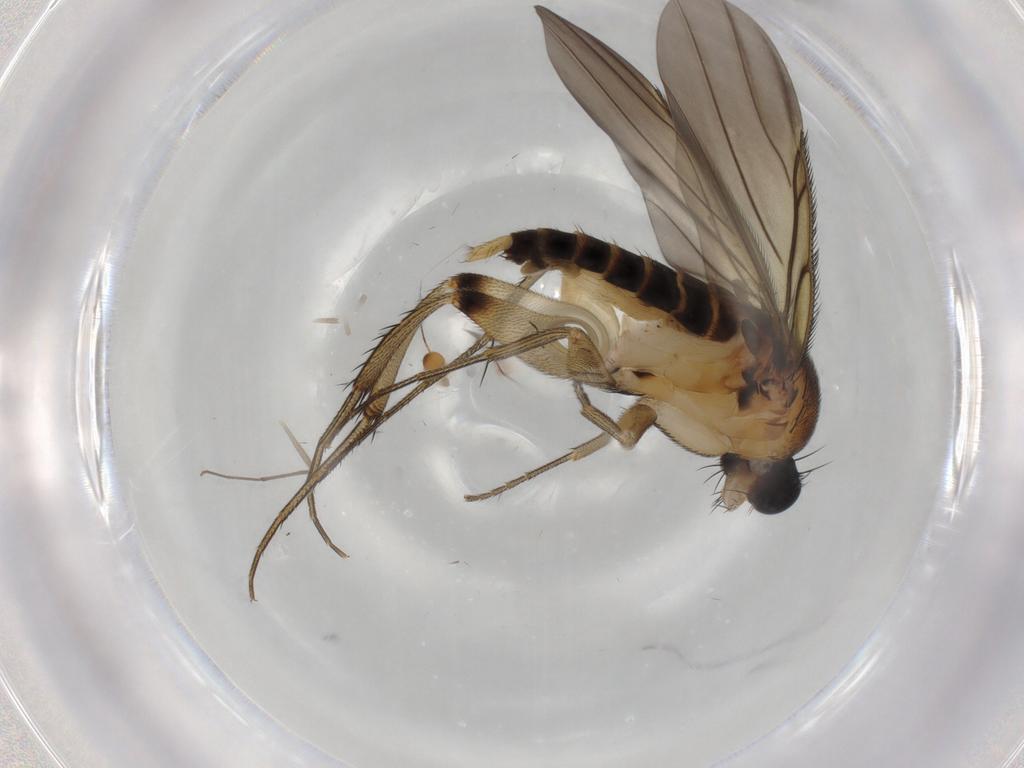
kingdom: Animalia
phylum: Arthropoda
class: Insecta
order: Diptera
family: Phoridae
